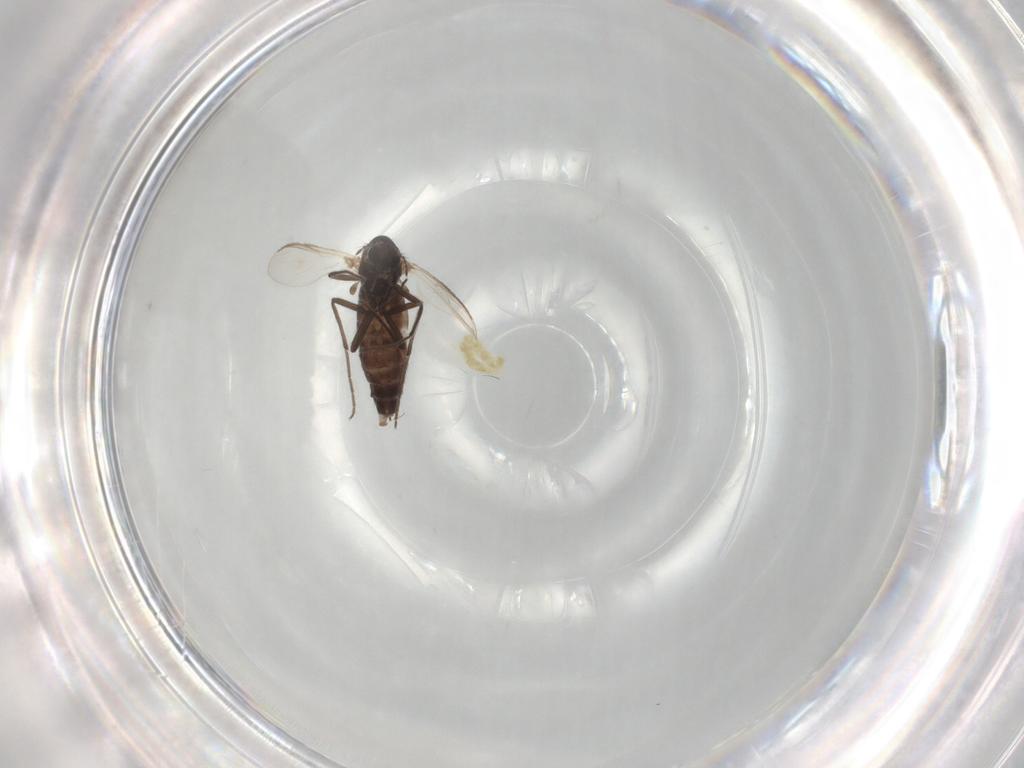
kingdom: Animalia
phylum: Arthropoda
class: Insecta
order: Diptera
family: Chironomidae
